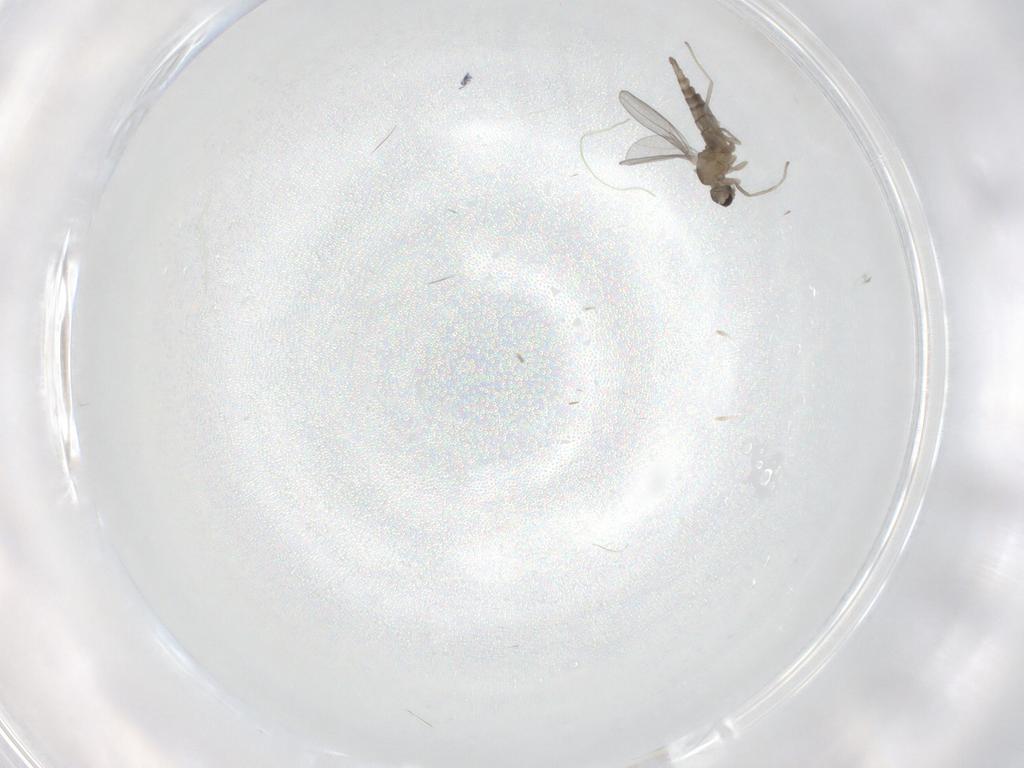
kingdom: Animalia
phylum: Arthropoda
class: Insecta
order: Diptera
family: Cecidomyiidae
